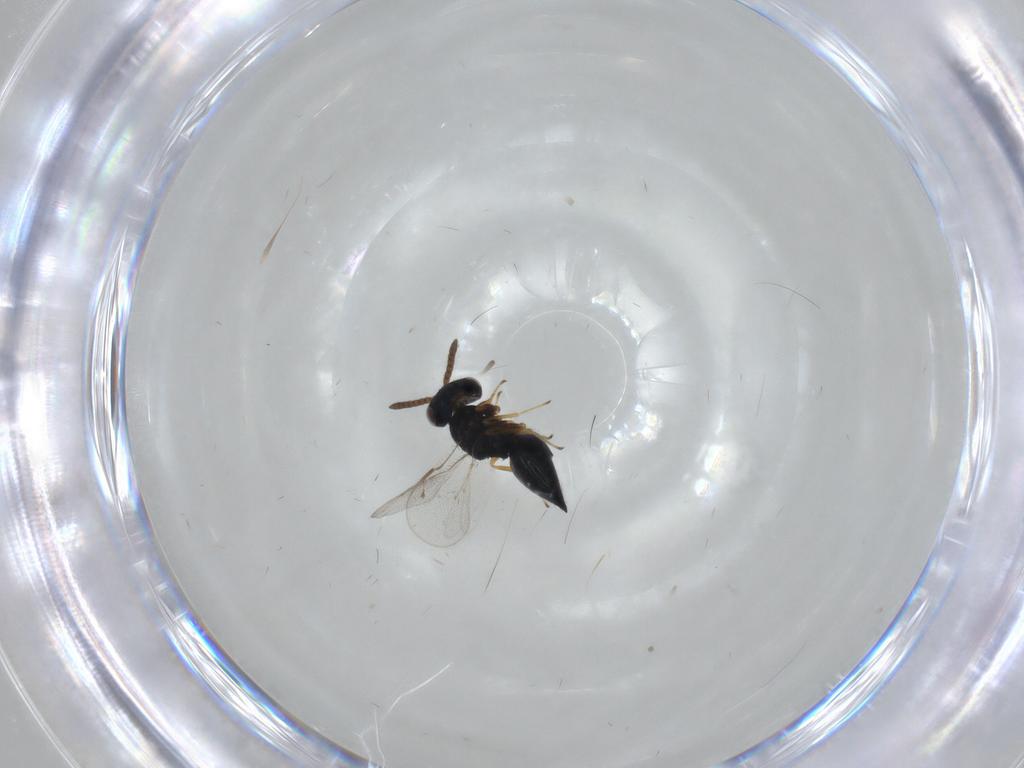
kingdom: Animalia
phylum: Arthropoda
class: Insecta
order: Hymenoptera
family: Pteromalidae
